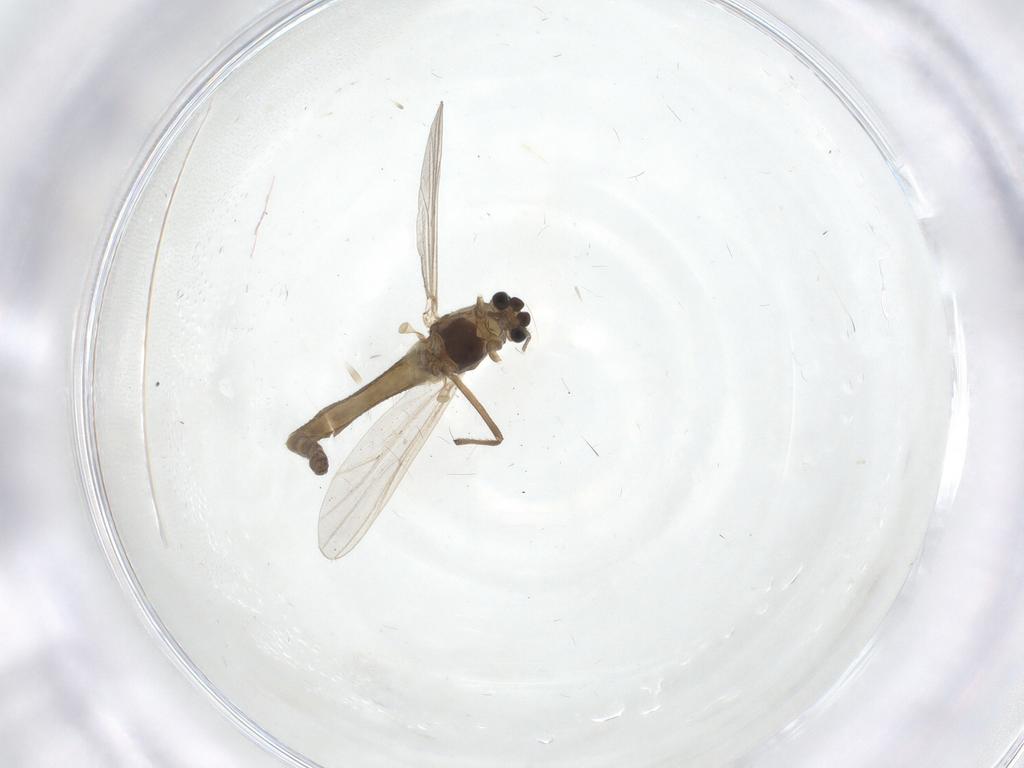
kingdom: Animalia
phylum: Arthropoda
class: Insecta
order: Diptera
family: Chironomidae
